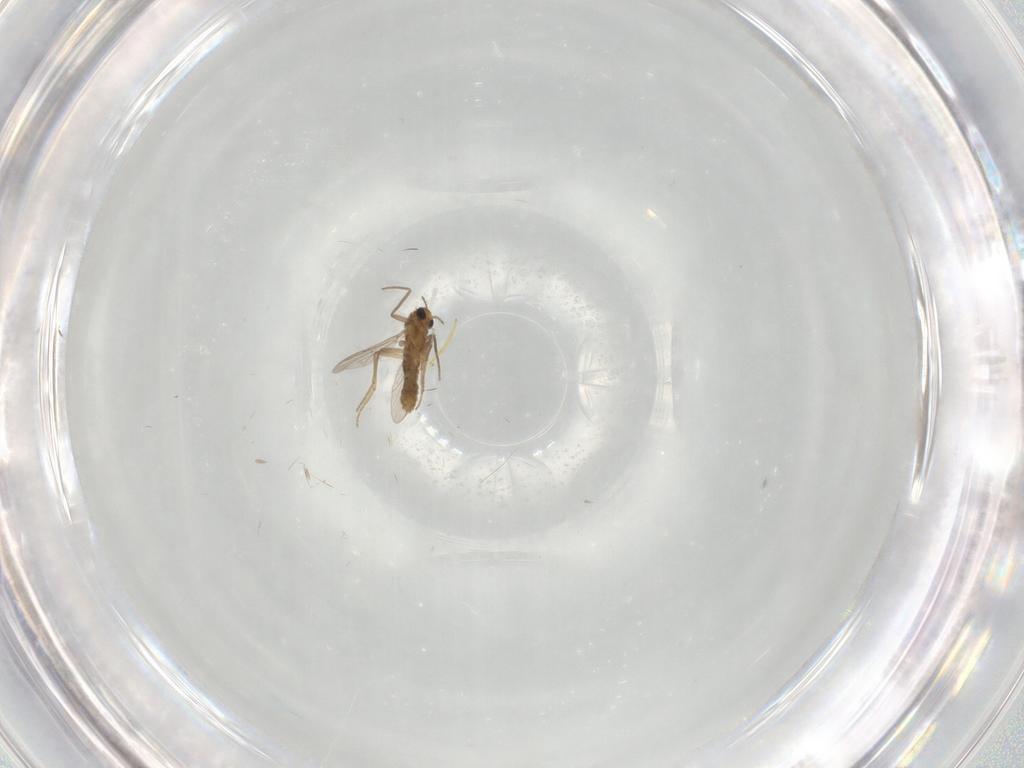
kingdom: Animalia
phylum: Arthropoda
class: Insecta
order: Diptera
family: Chironomidae
